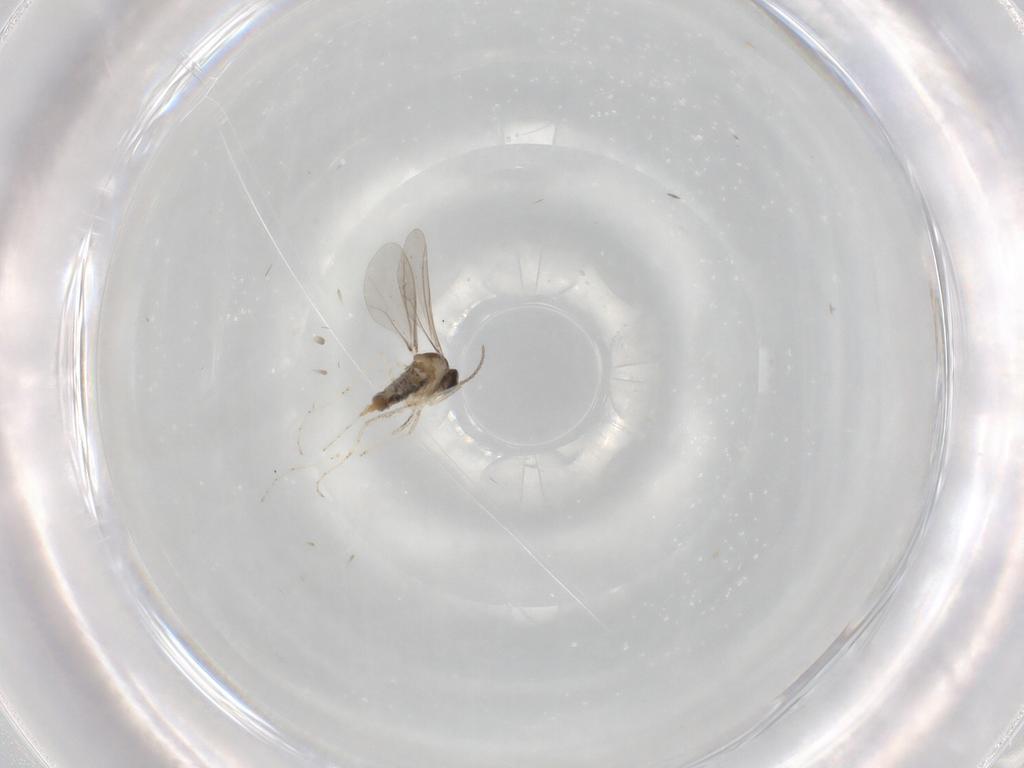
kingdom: Animalia
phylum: Arthropoda
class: Insecta
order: Diptera
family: Cecidomyiidae
